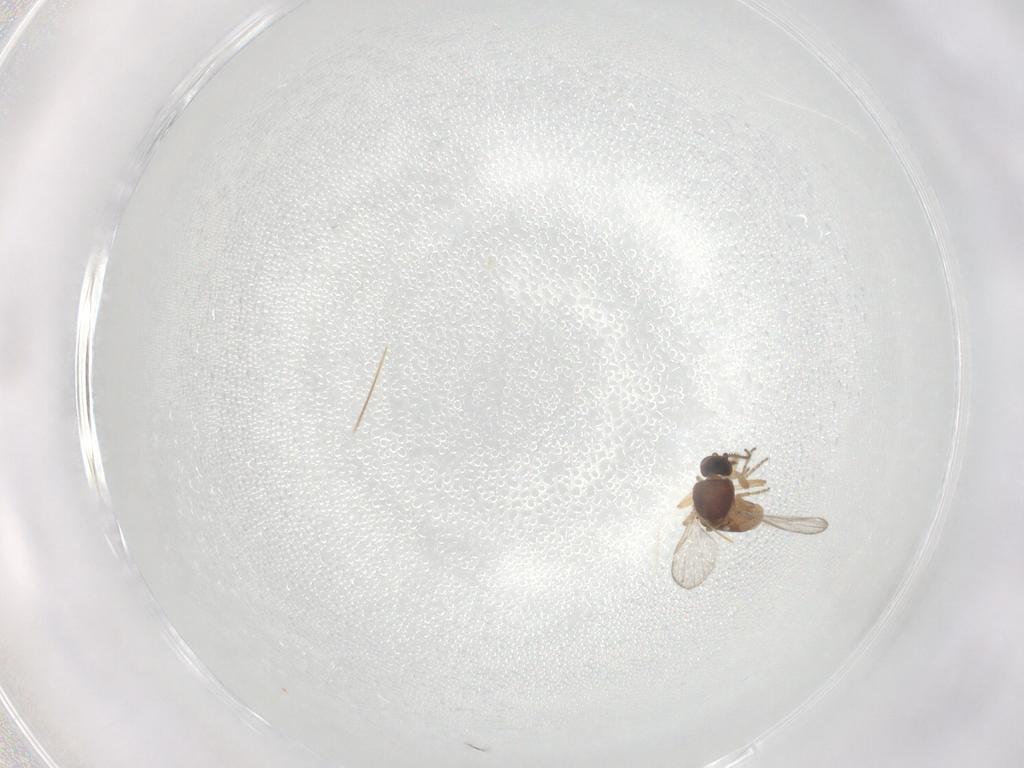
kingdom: Animalia
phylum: Arthropoda
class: Insecta
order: Diptera
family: Ceratopogonidae
